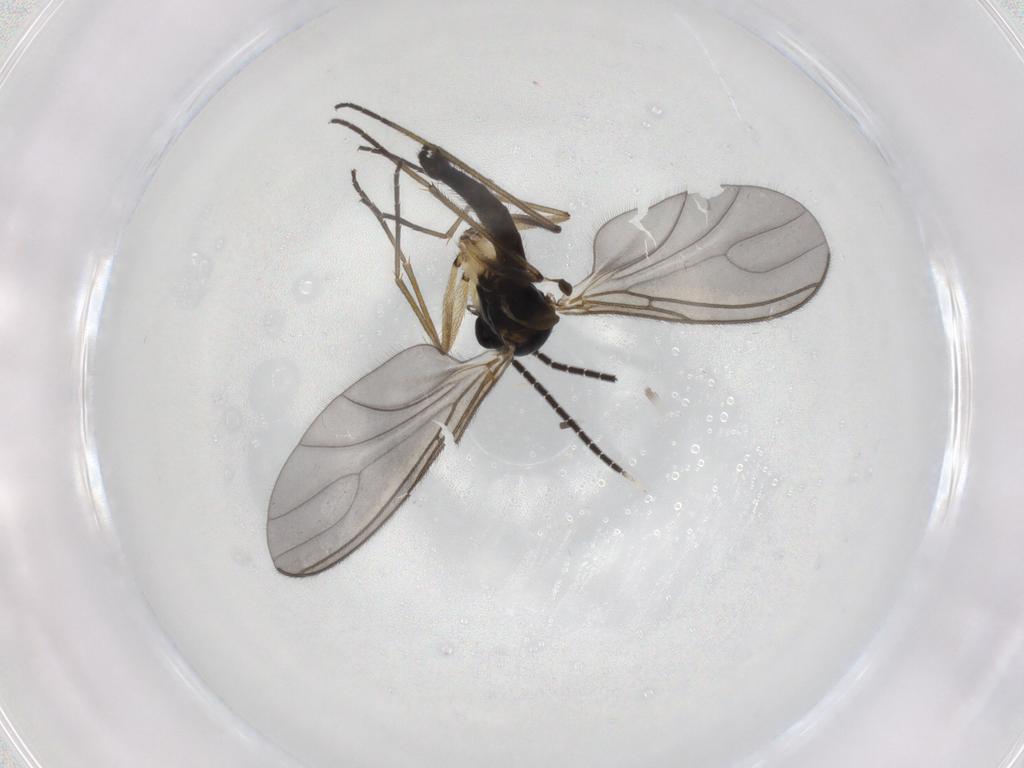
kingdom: Animalia
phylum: Arthropoda
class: Insecta
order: Diptera
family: Sciaridae
